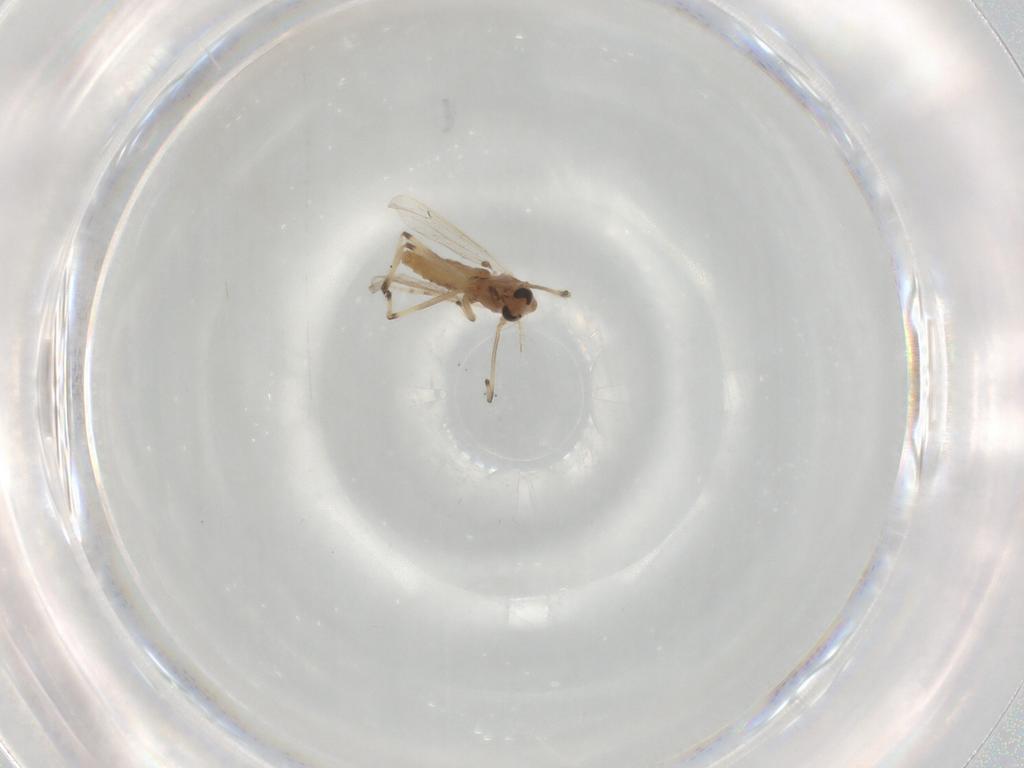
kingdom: Animalia
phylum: Arthropoda
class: Insecta
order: Diptera
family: Chironomidae
